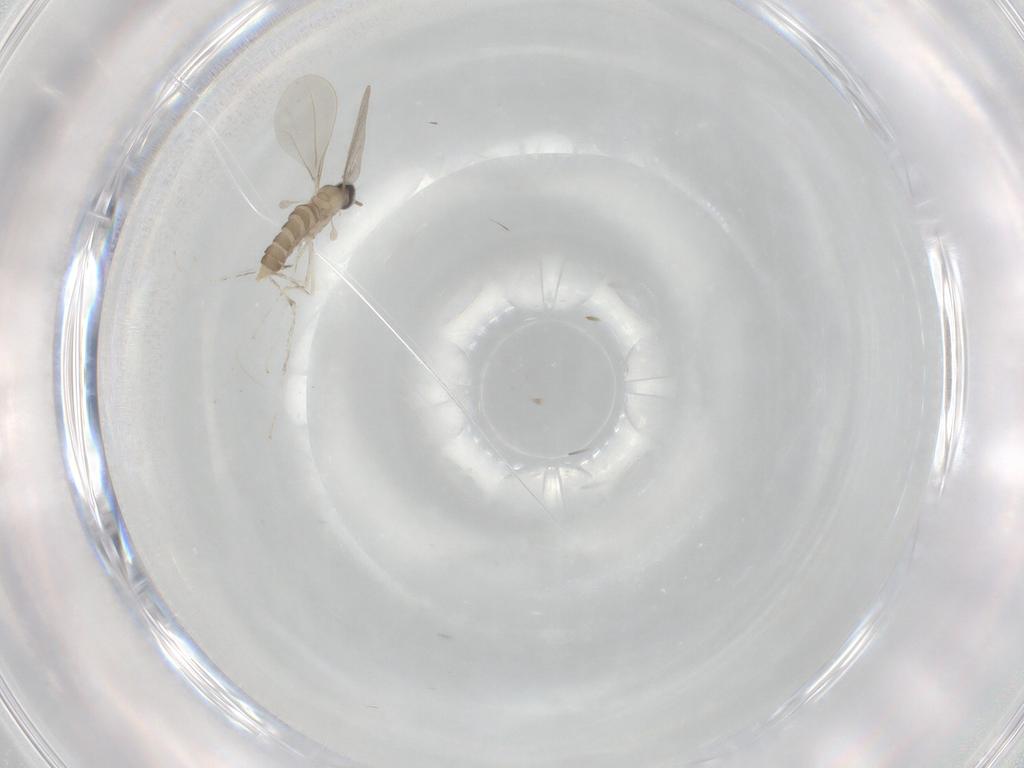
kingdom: Animalia
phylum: Arthropoda
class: Insecta
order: Diptera
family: Cecidomyiidae
